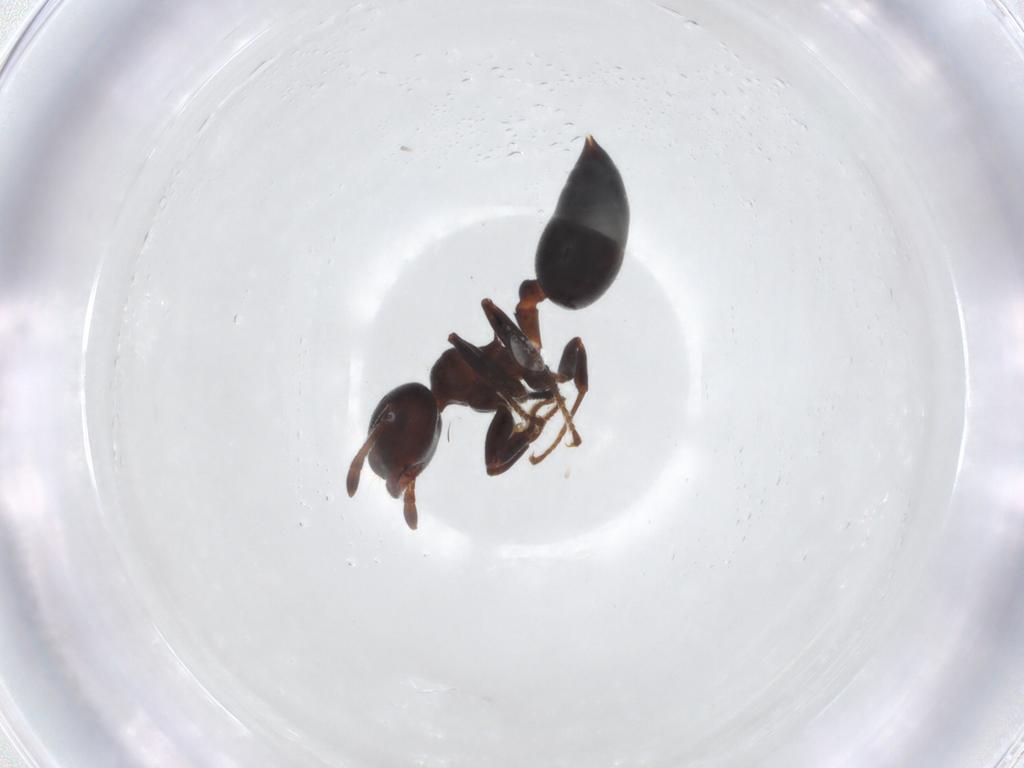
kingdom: Animalia
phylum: Arthropoda
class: Insecta
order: Hymenoptera
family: Formicidae
